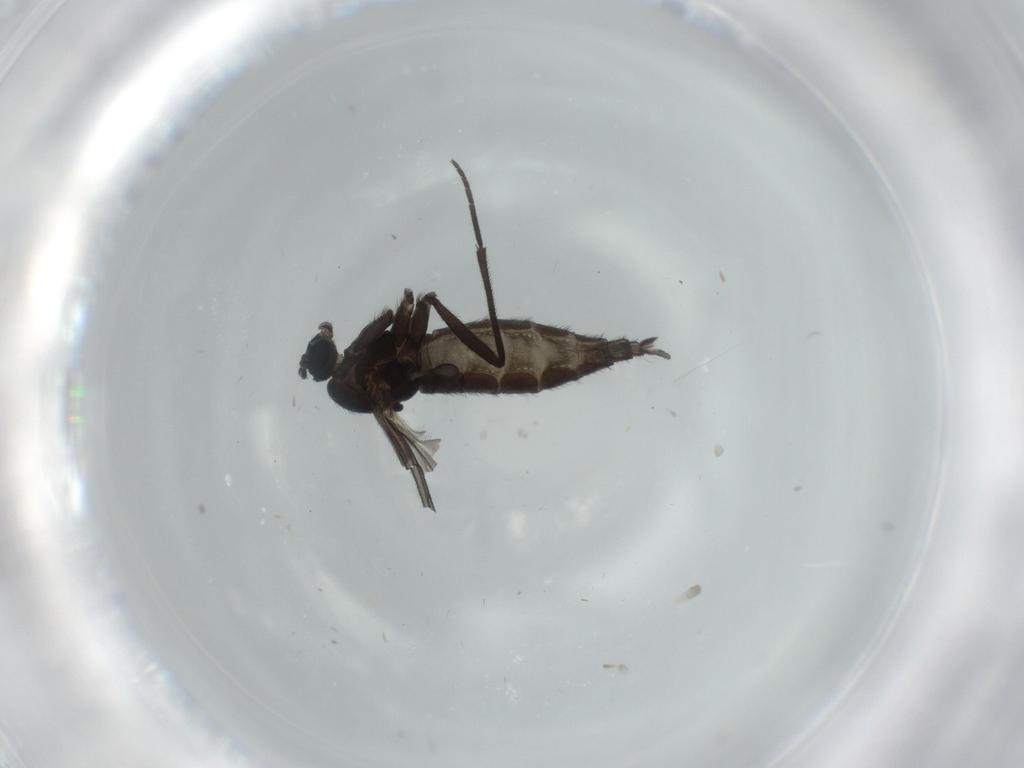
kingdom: Animalia
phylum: Arthropoda
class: Insecta
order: Diptera
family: Sciaridae
